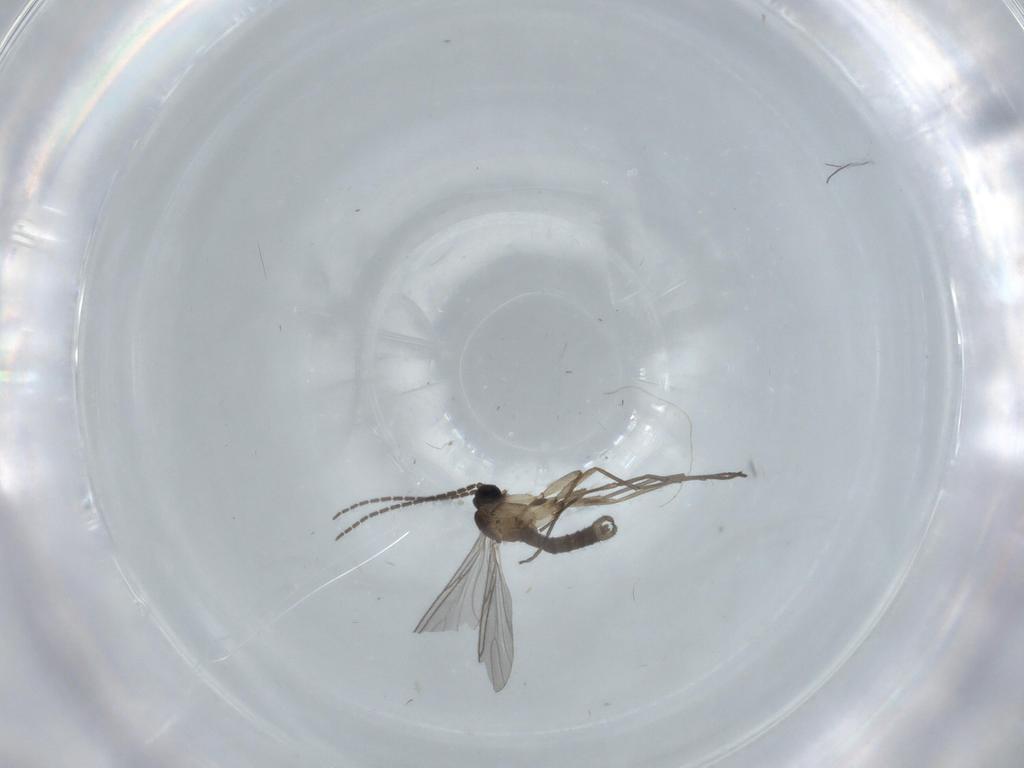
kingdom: Animalia
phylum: Arthropoda
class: Insecta
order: Diptera
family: Sciaridae
